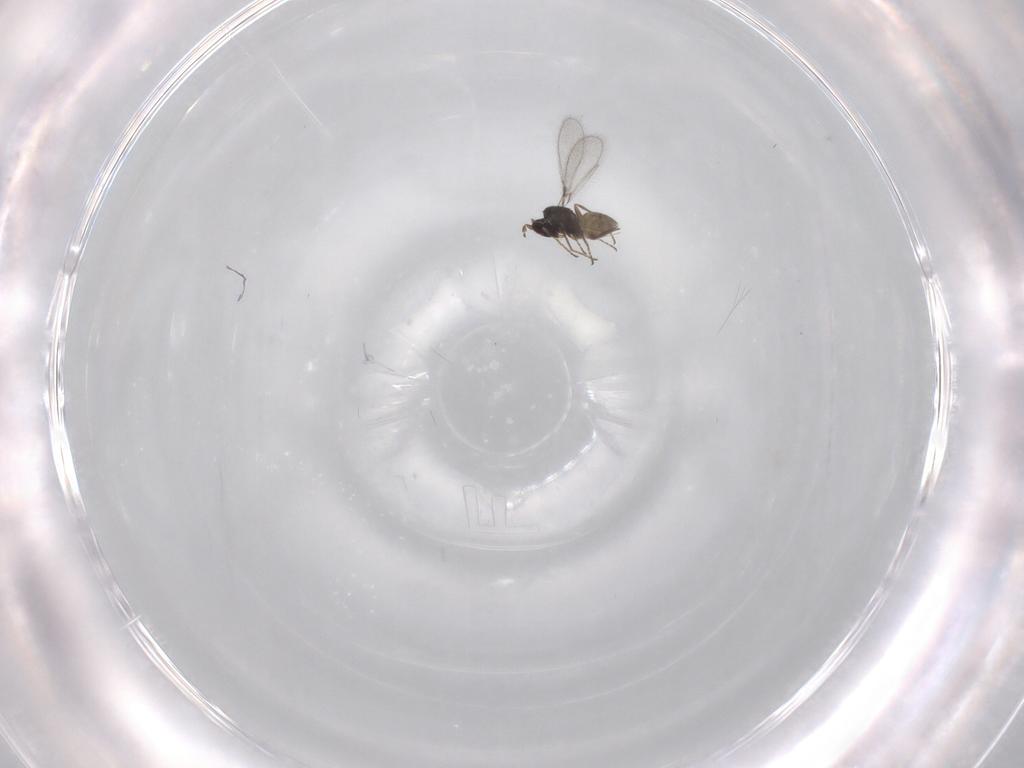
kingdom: Animalia
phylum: Arthropoda
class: Insecta
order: Hymenoptera
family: Mymaridae
